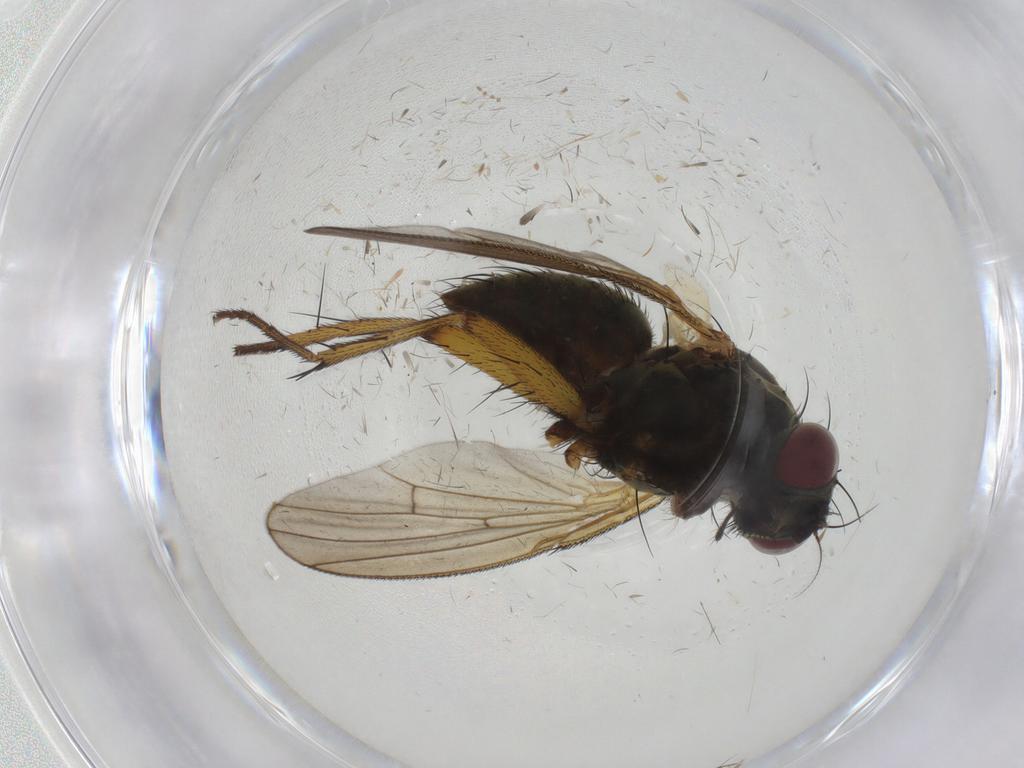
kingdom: Animalia
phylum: Arthropoda
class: Insecta
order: Diptera
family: Muscidae
